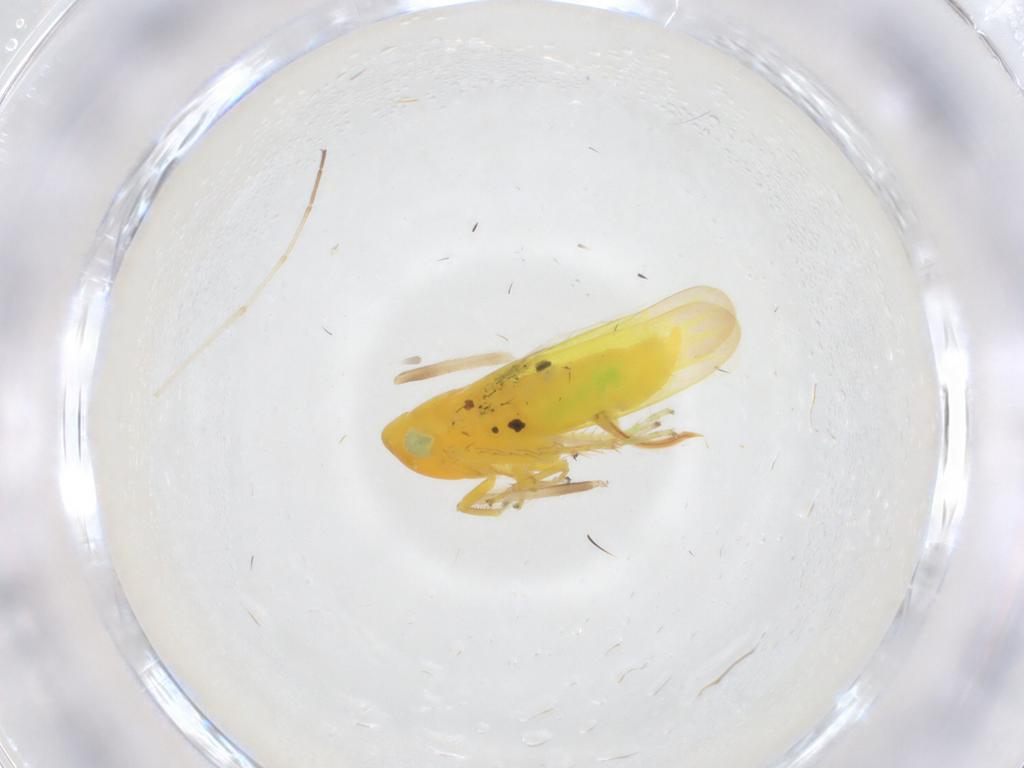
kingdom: Animalia
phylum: Arthropoda
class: Insecta
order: Hemiptera
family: Cicadellidae
